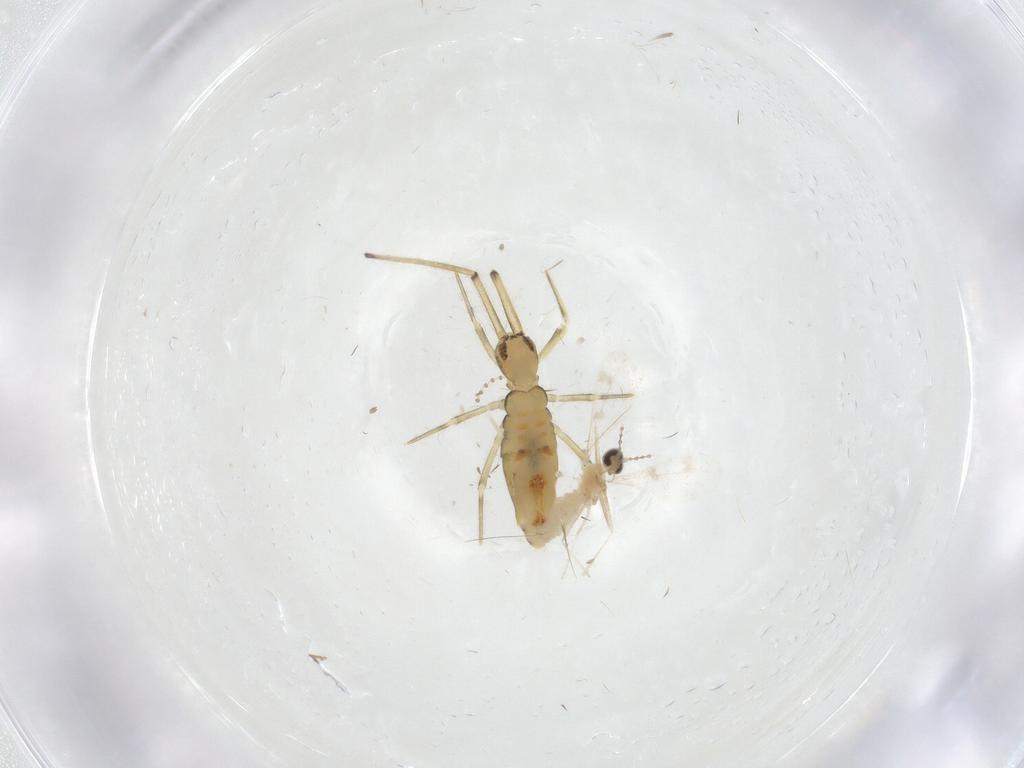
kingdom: Animalia
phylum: Arthropoda
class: Insecta
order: Diptera
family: Cecidomyiidae
